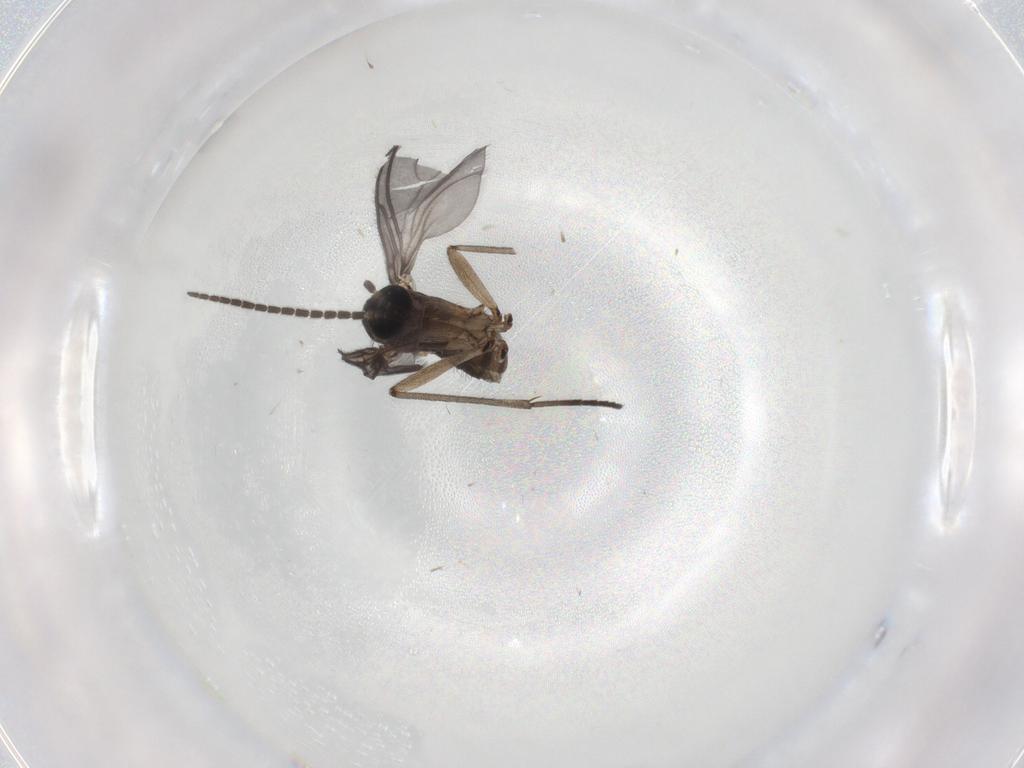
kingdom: Animalia
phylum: Arthropoda
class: Insecta
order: Diptera
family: Sciaridae
